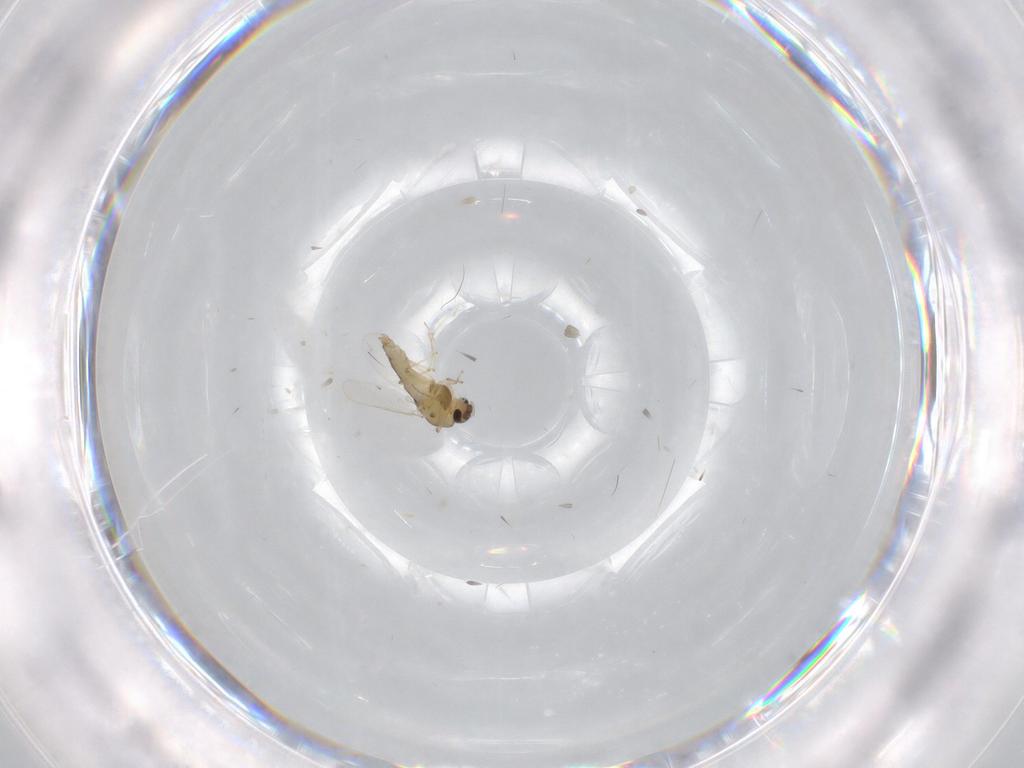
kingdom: Animalia
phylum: Arthropoda
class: Insecta
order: Diptera
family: Chironomidae
